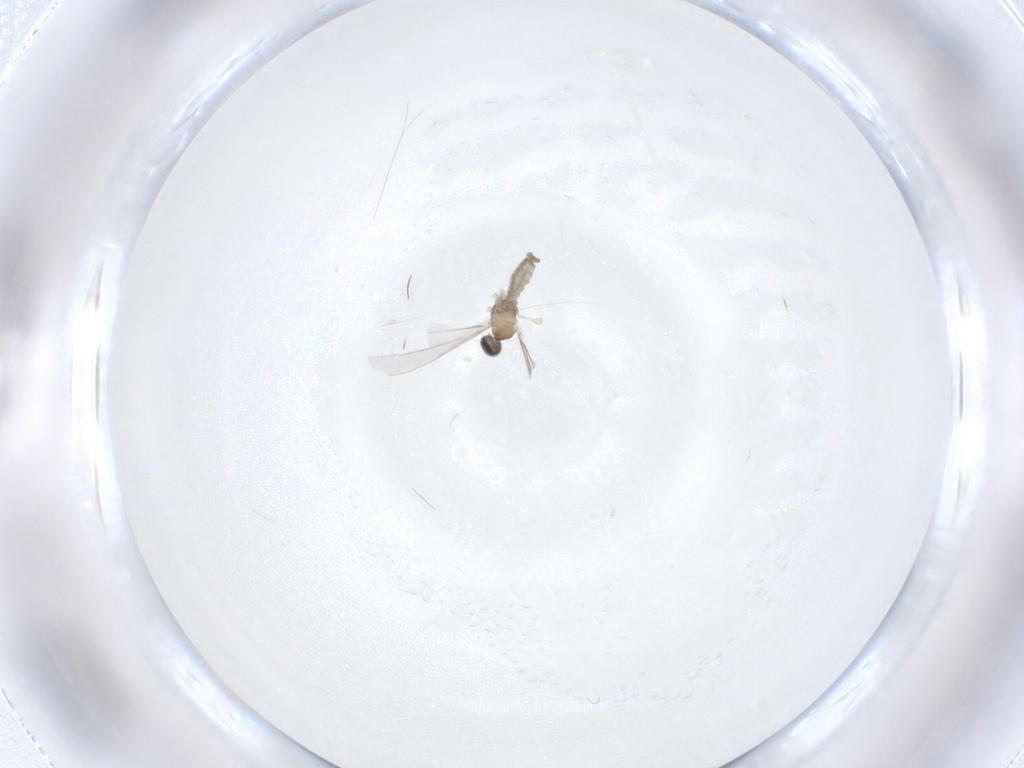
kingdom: Animalia
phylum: Arthropoda
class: Insecta
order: Diptera
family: Cecidomyiidae
